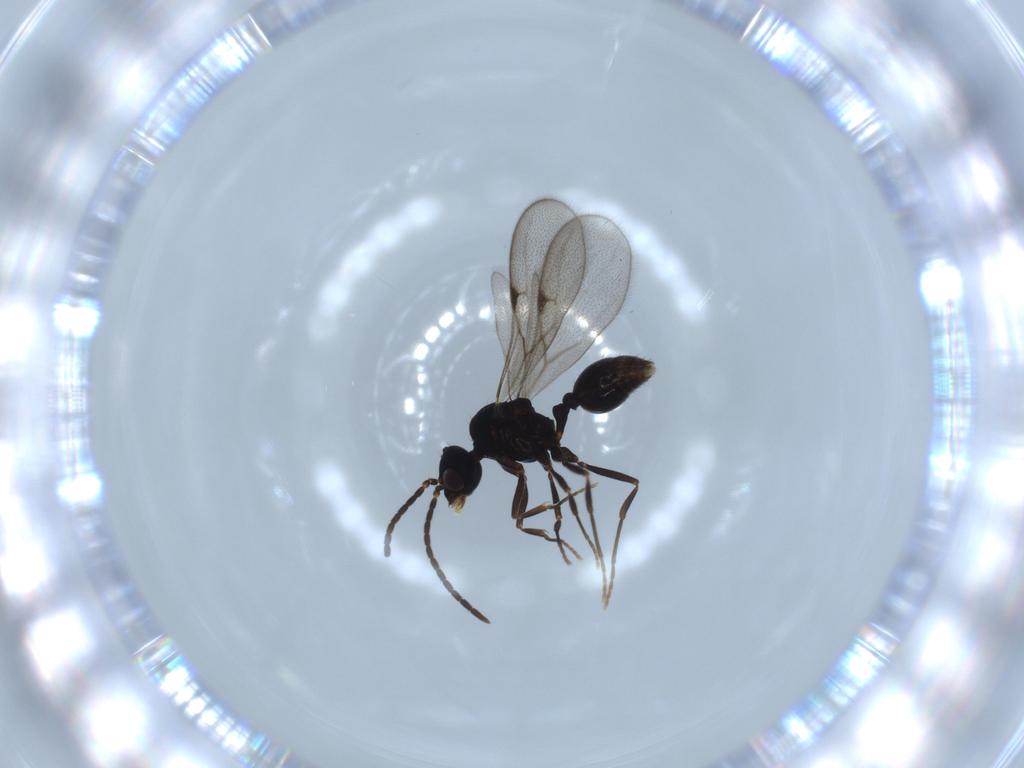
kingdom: Animalia
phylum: Arthropoda
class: Insecta
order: Hymenoptera
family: Formicidae
